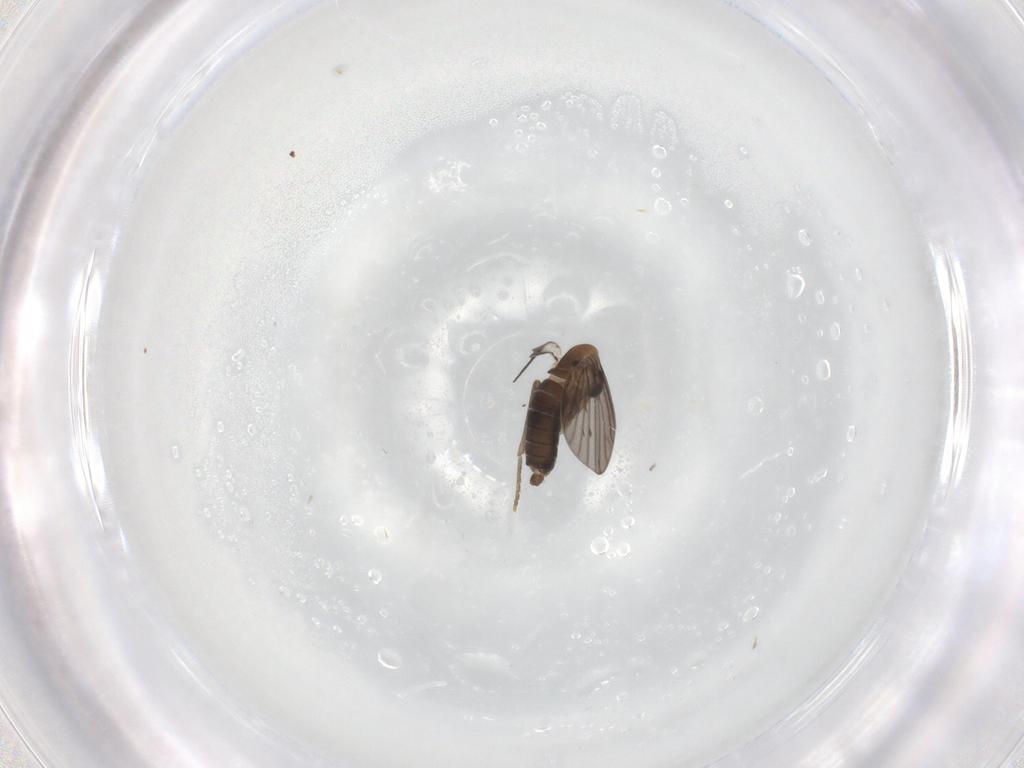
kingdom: Animalia
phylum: Arthropoda
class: Insecta
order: Diptera
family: Psychodidae
